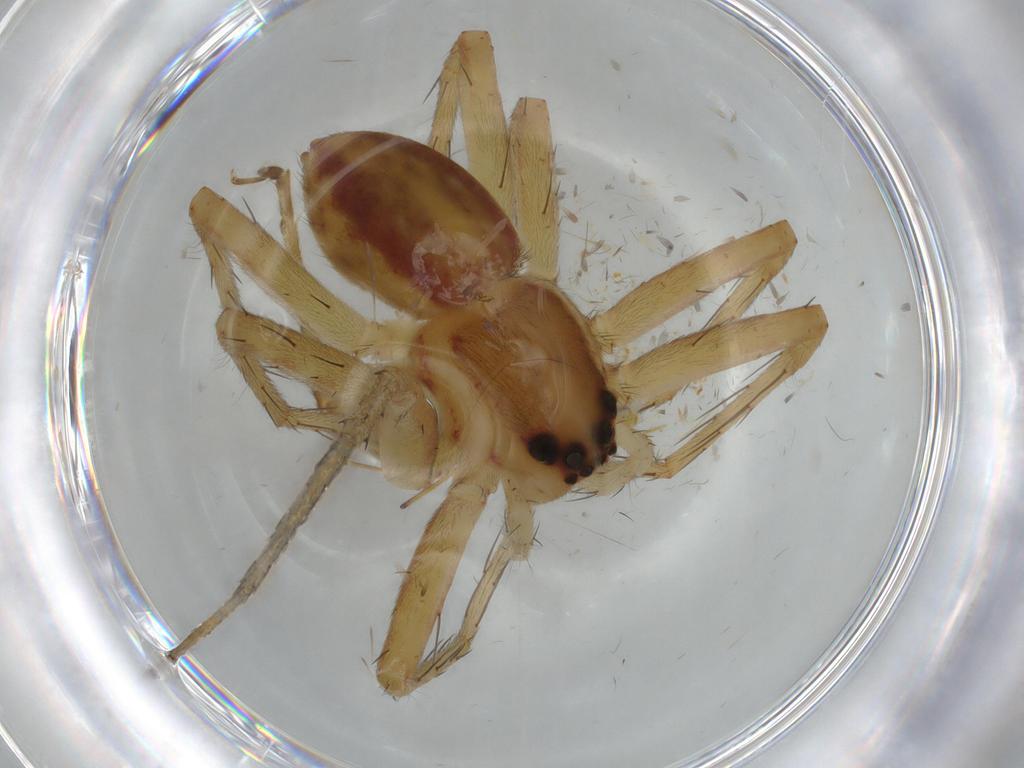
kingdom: Animalia
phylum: Arthropoda
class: Arachnida
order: Araneae
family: Pisauridae
